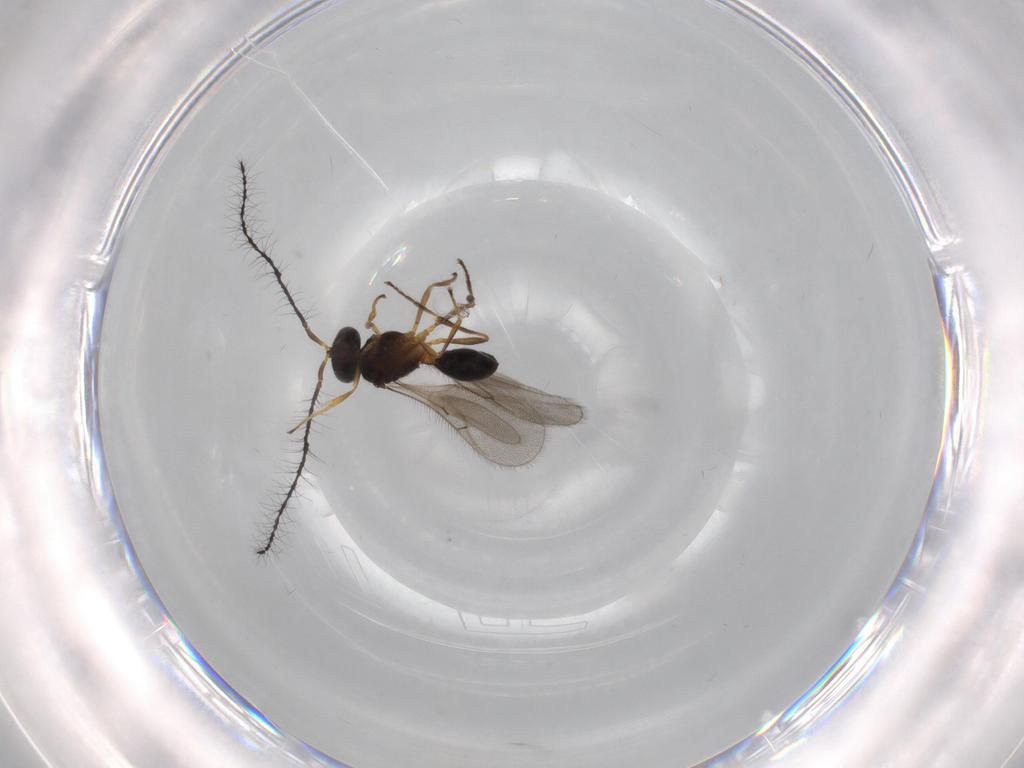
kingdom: Animalia
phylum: Arthropoda
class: Insecta
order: Hymenoptera
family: Scelionidae
